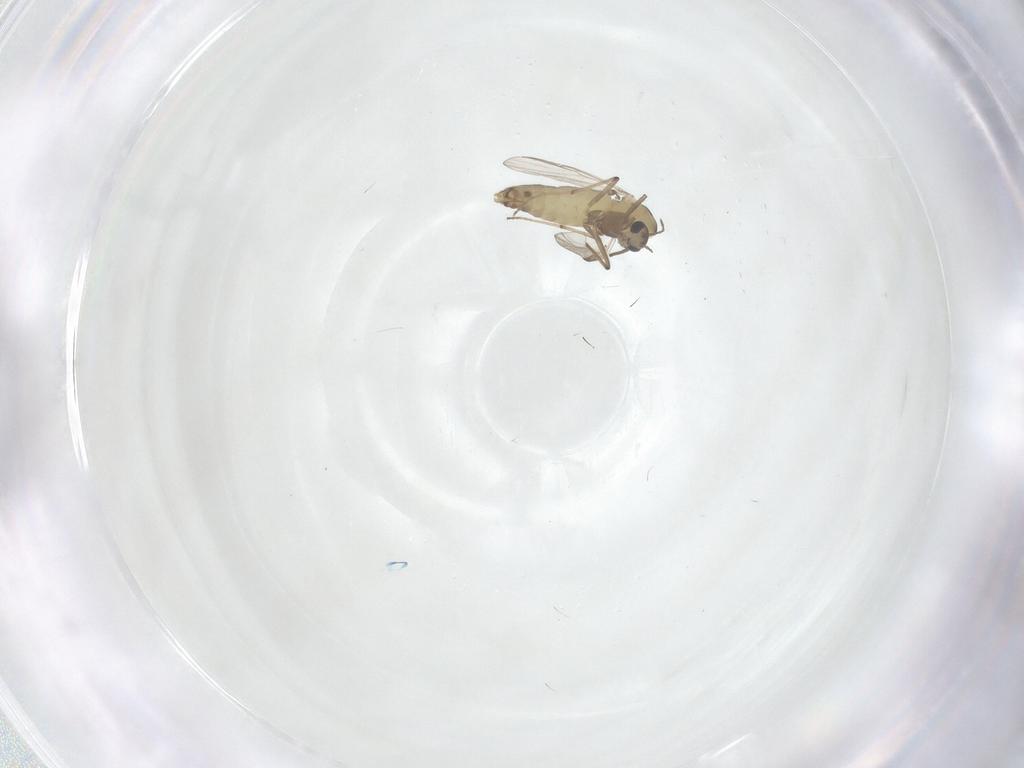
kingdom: Animalia
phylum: Arthropoda
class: Insecta
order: Diptera
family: Chironomidae
